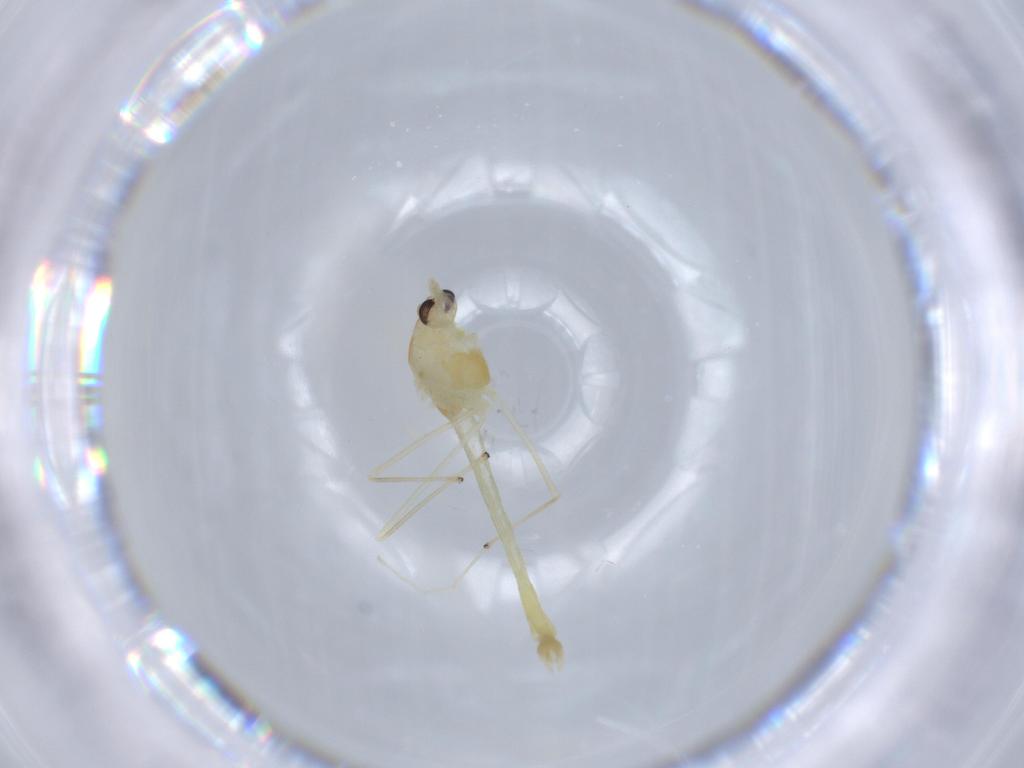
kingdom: Animalia
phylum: Arthropoda
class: Insecta
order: Diptera
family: Chironomidae
